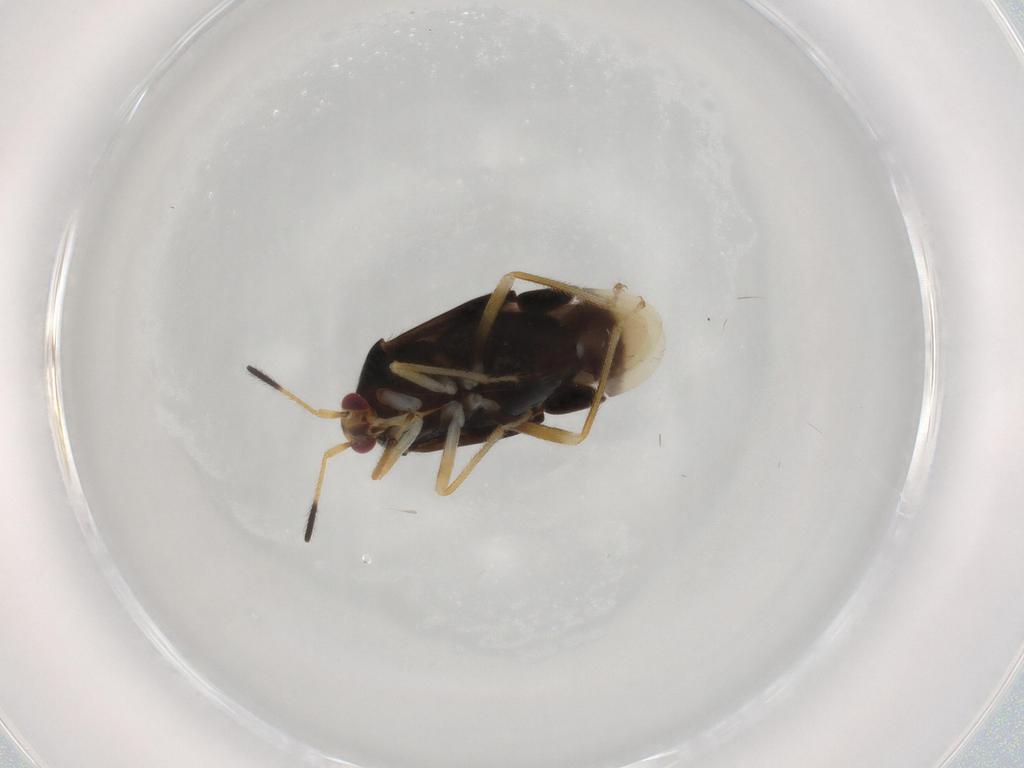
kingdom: Animalia
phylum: Arthropoda
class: Insecta
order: Hemiptera
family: Miridae
